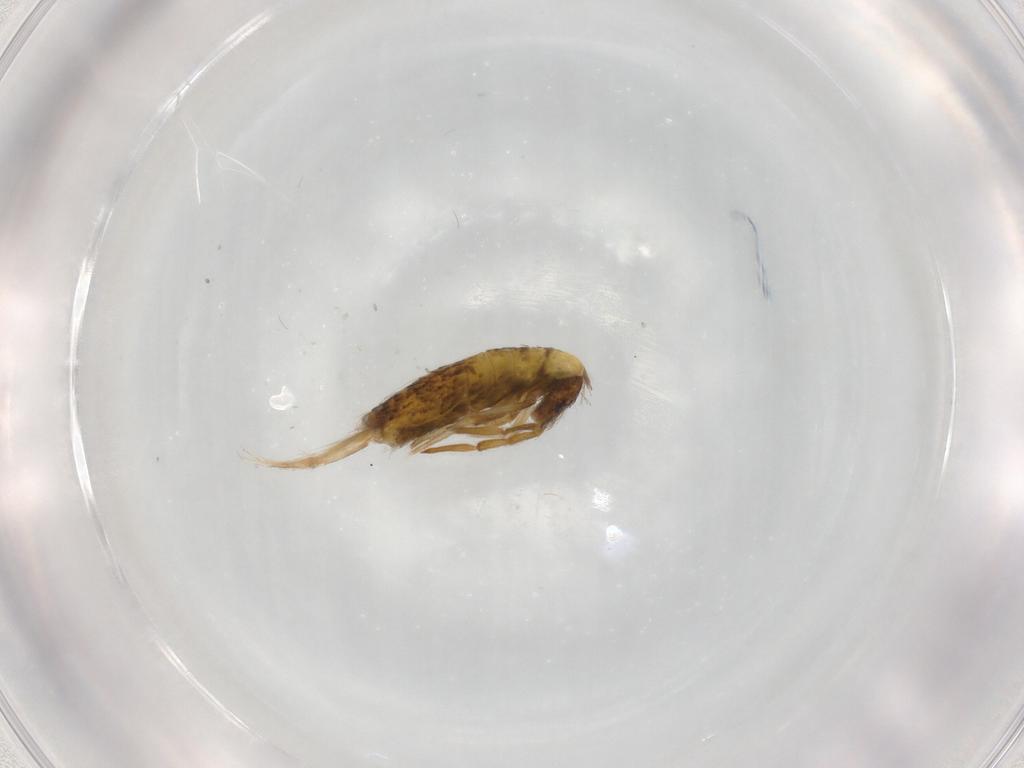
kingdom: Animalia
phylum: Arthropoda
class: Collembola
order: Entomobryomorpha
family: Entomobryidae
